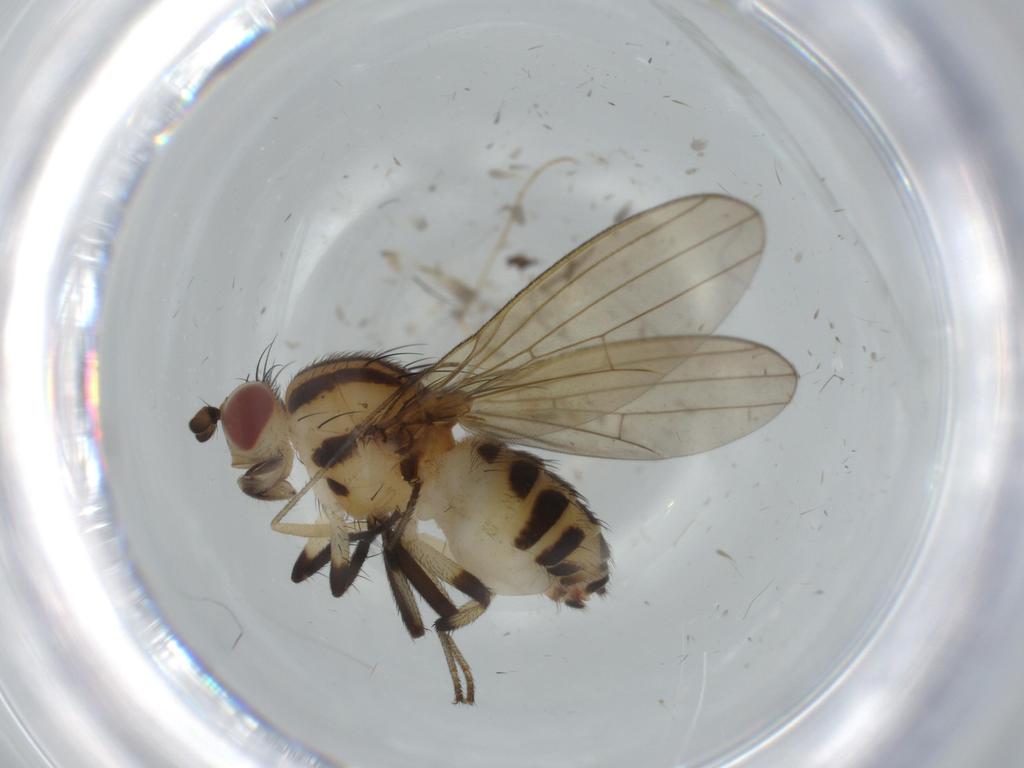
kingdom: Animalia
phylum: Arthropoda
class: Insecta
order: Diptera
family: Lauxaniidae
